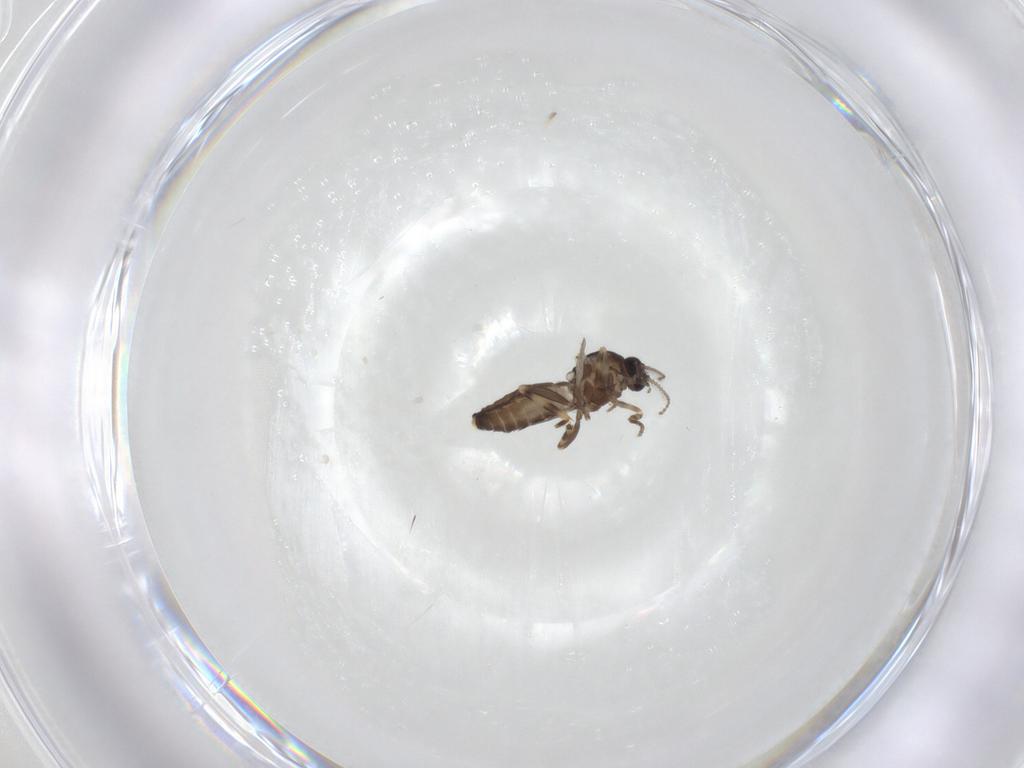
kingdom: Animalia
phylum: Arthropoda
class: Insecta
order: Diptera
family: Ceratopogonidae
